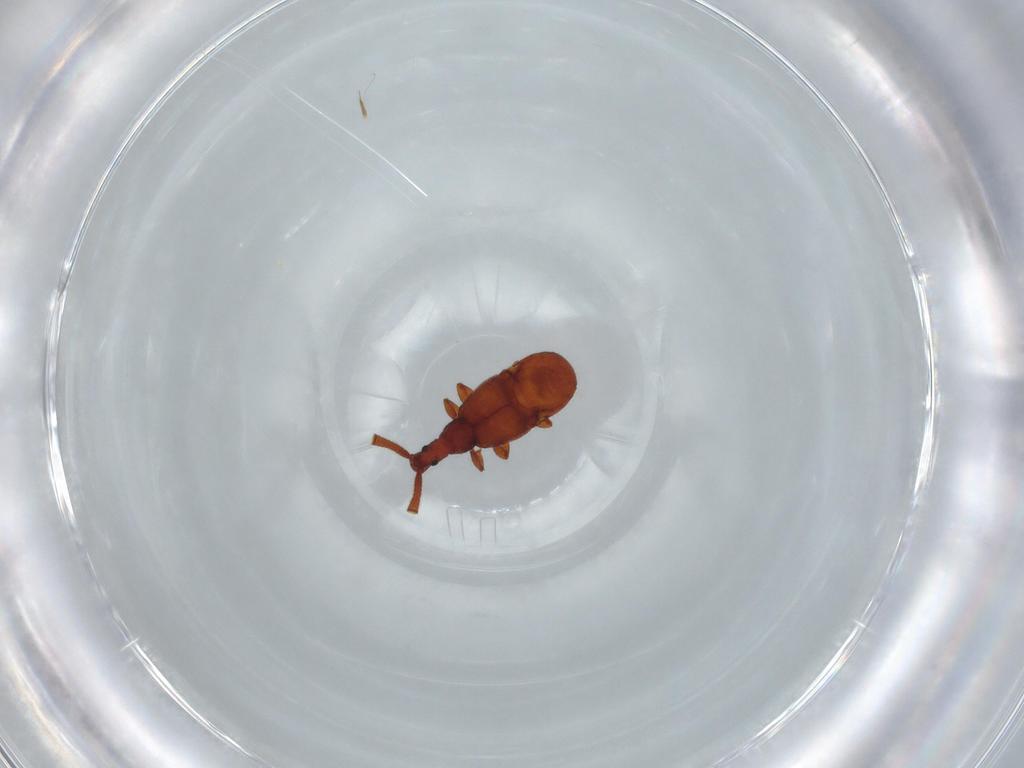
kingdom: Animalia
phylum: Arthropoda
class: Insecta
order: Coleoptera
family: Staphylinidae
